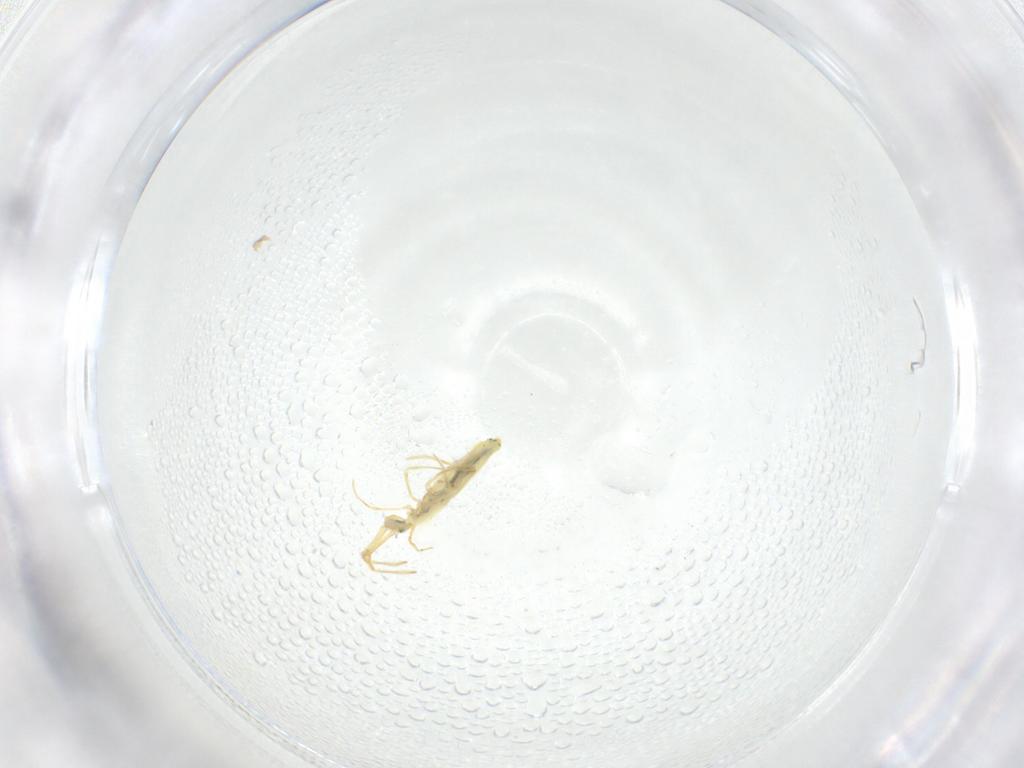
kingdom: Animalia
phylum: Arthropoda
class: Collembola
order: Entomobryomorpha
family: Entomobryidae
